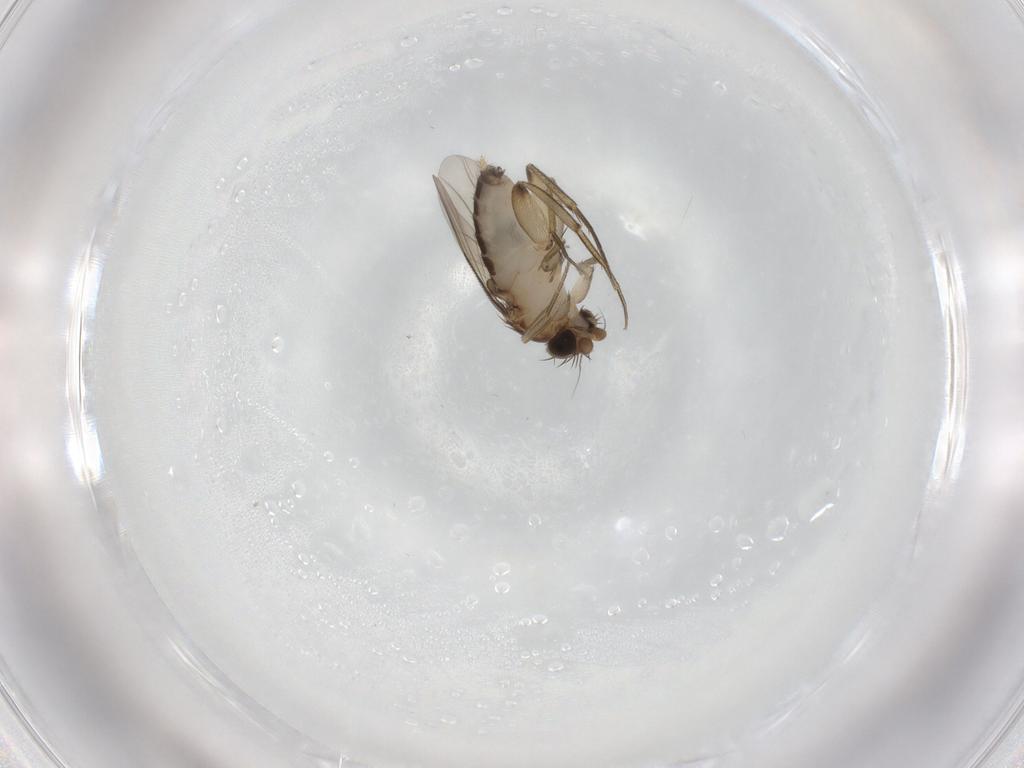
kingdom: Animalia
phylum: Arthropoda
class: Insecta
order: Diptera
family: Phoridae
